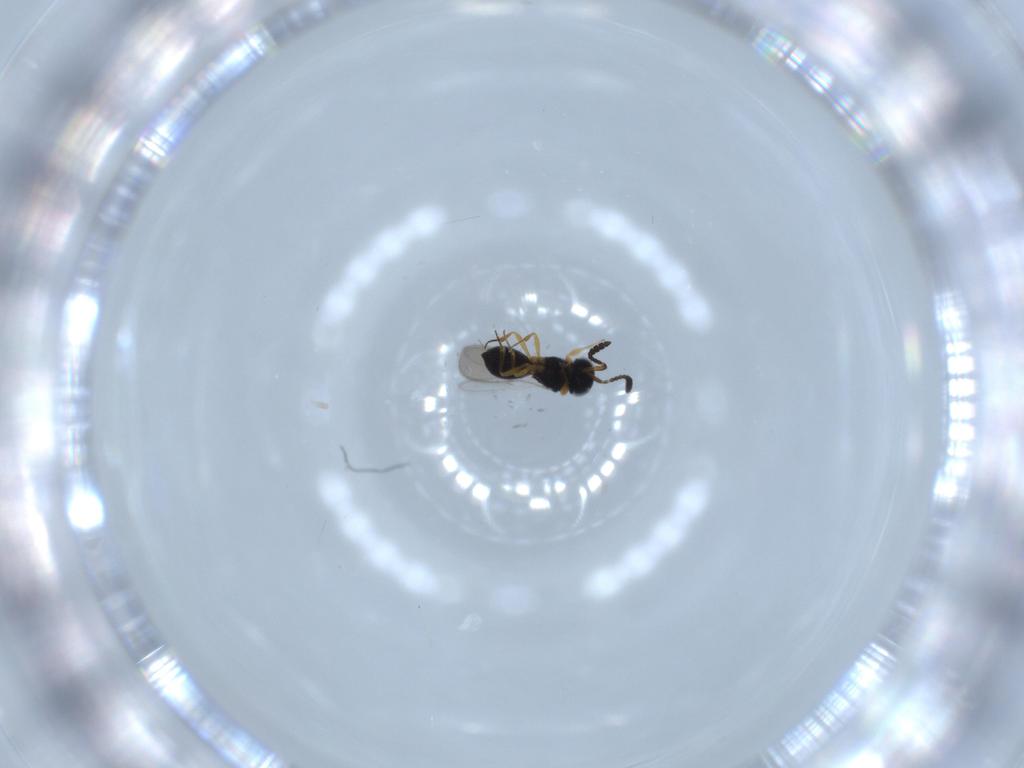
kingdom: Animalia
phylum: Arthropoda
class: Insecta
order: Hymenoptera
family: Scelionidae
